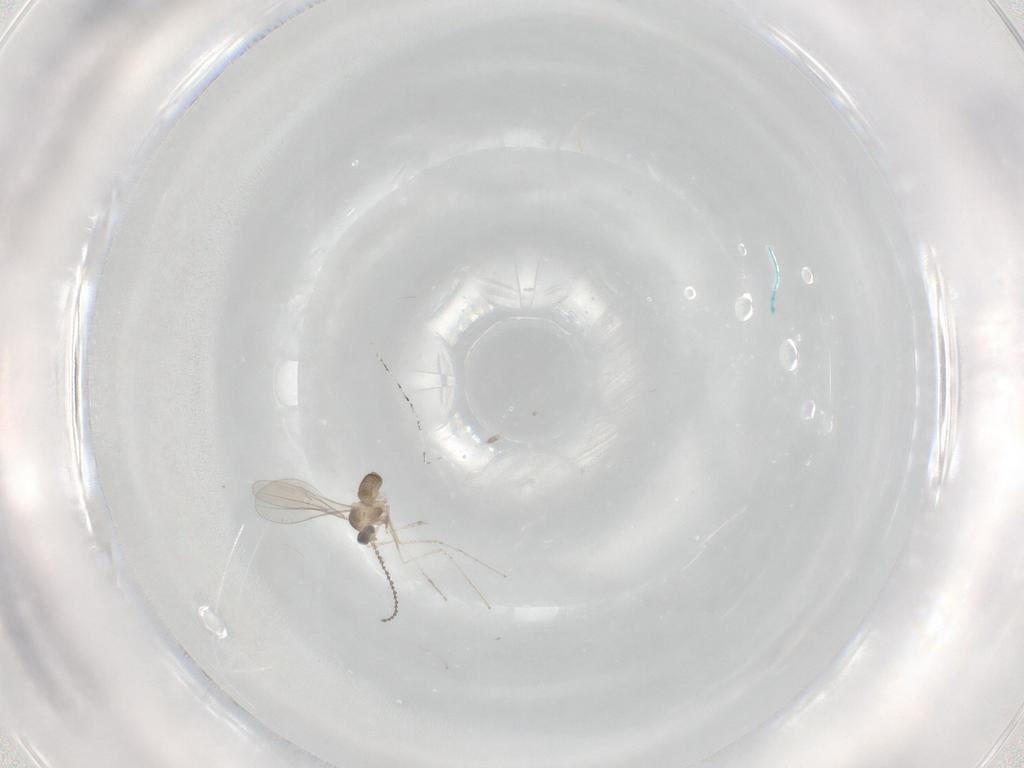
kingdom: Animalia
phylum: Arthropoda
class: Insecta
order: Diptera
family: Cecidomyiidae
